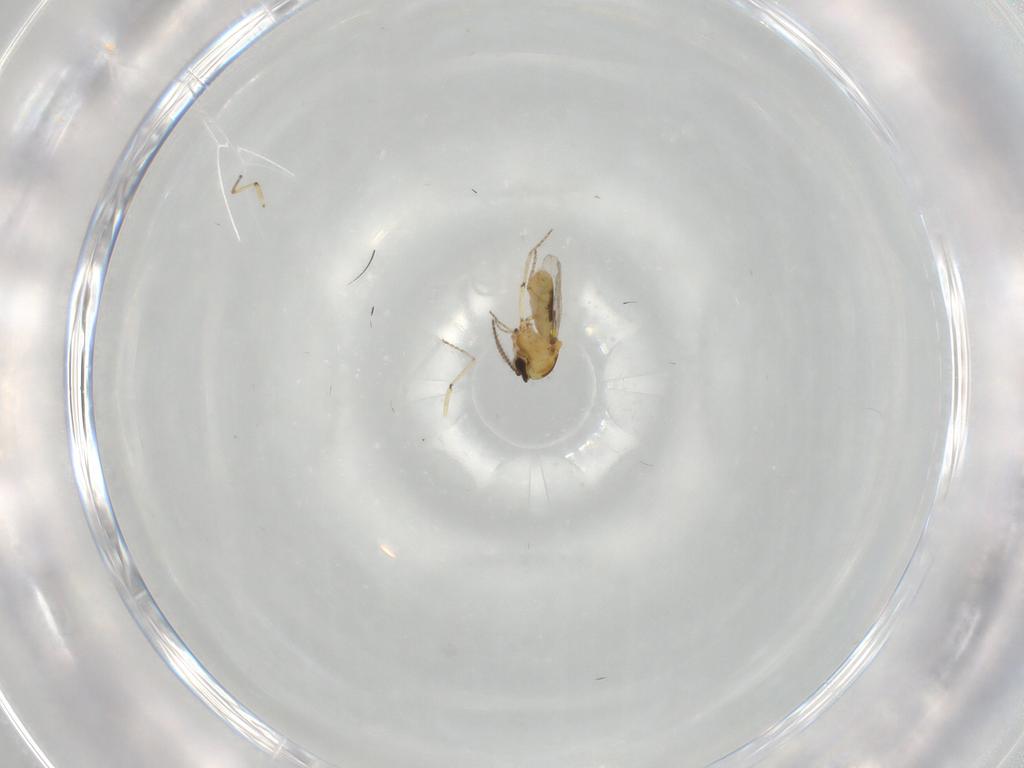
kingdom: Animalia
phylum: Arthropoda
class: Insecta
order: Diptera
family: Ceratopogonidae
